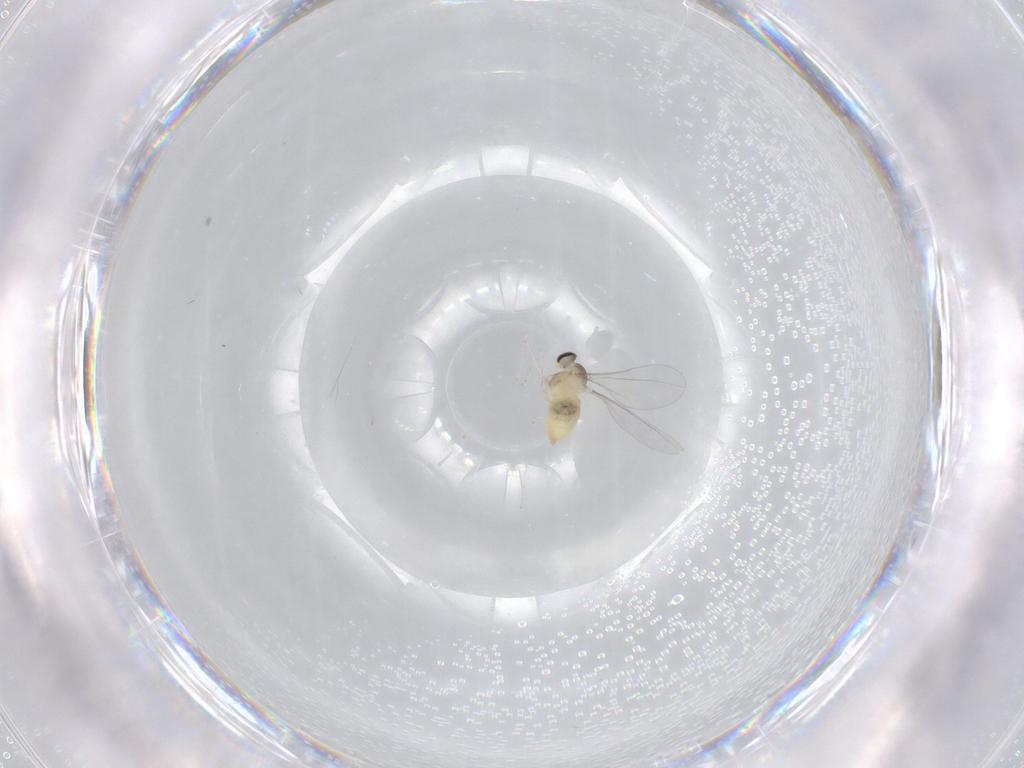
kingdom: Animalia
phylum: Arthropoda
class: Insecta
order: Diptera
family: Cecidomyiidae
